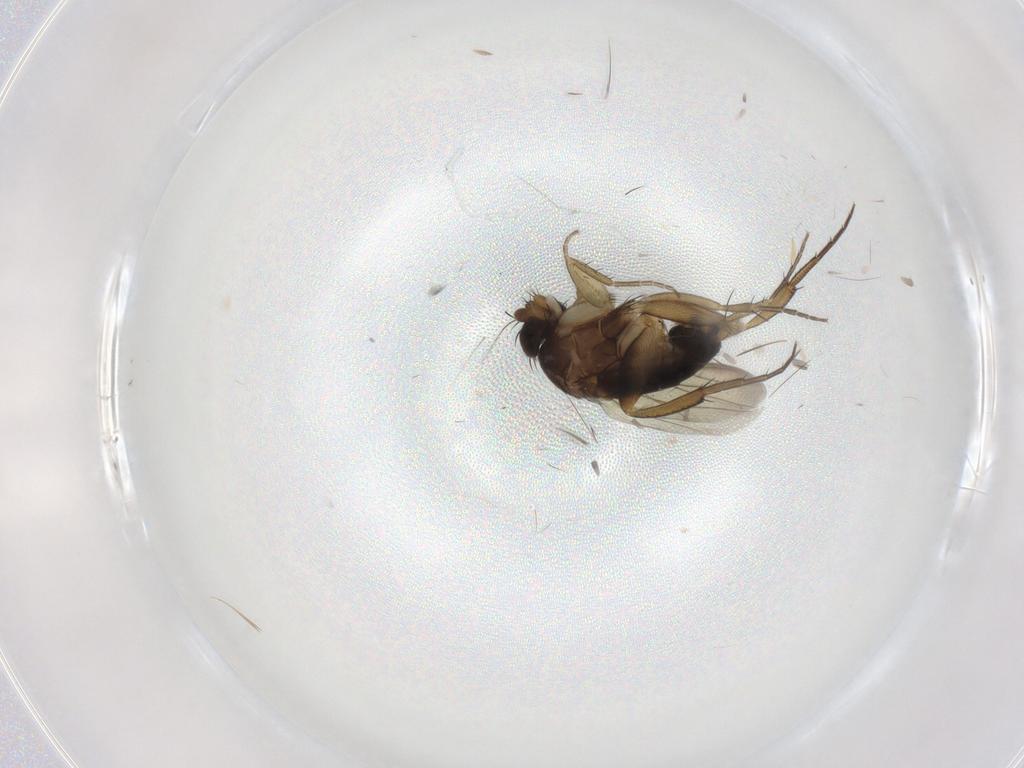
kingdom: Animalia
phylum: Arthropoda
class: Insecta
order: Diptera
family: Phoridae
